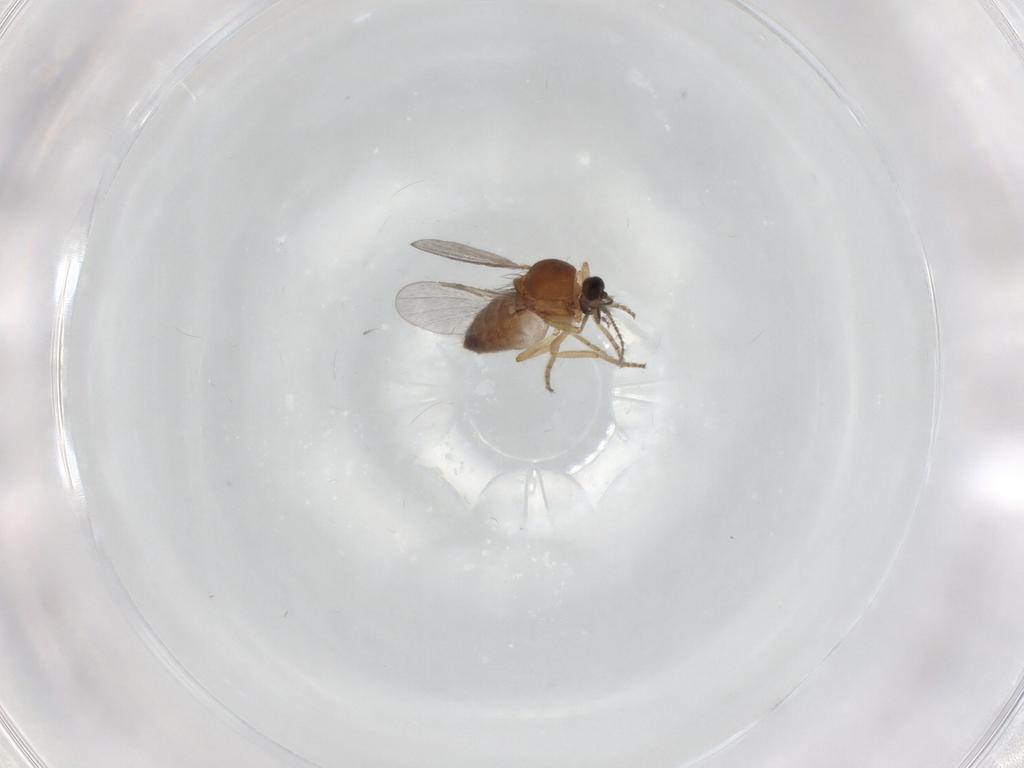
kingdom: Animalia
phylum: Arthropoda
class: Insecta
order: Diptera
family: Ceratopogonidae
